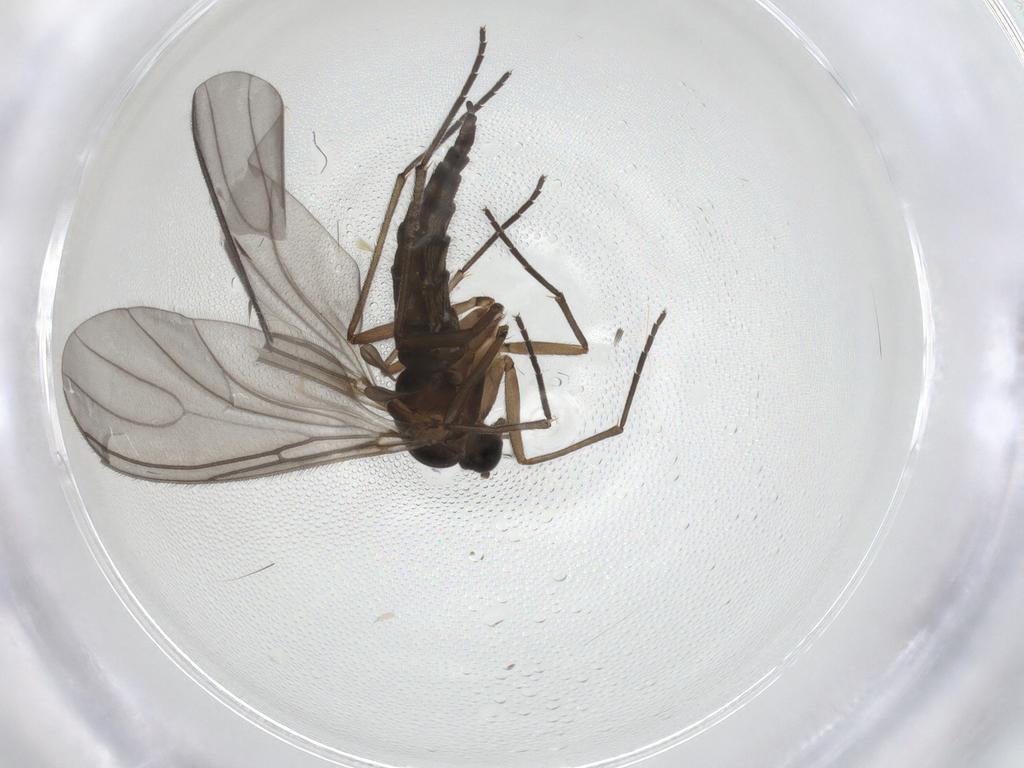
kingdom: Animalia
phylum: Arthropoda
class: Insecta
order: Diptera
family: Sciaridae
